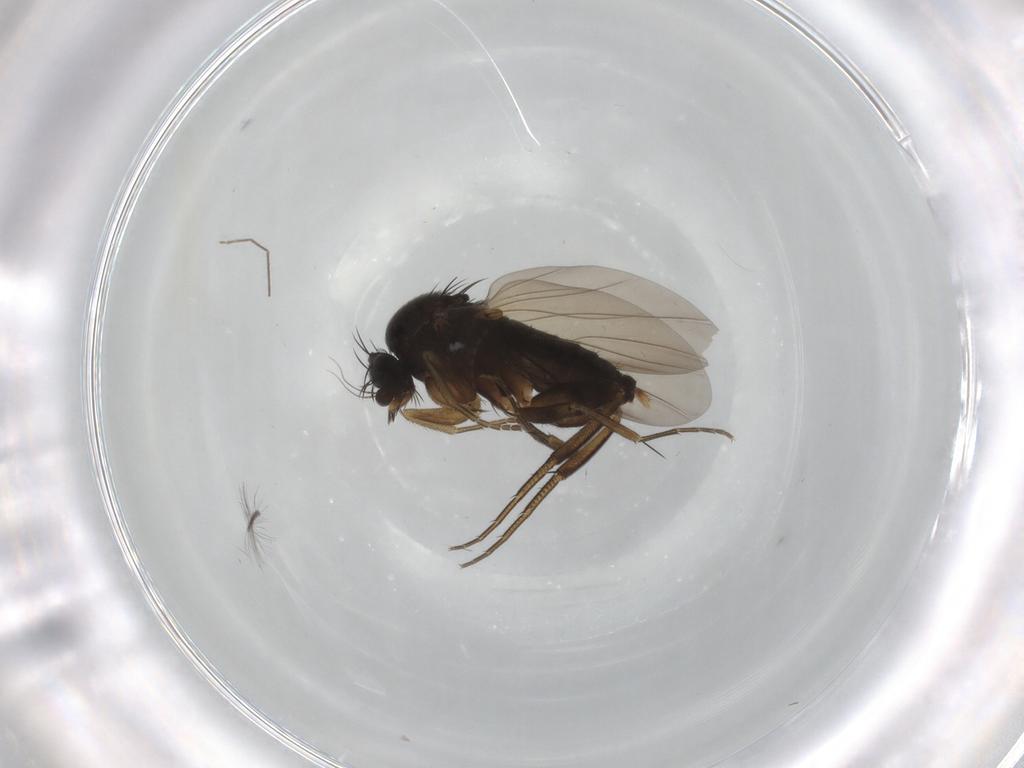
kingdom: Animalia
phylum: Arthropoda
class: Insecta
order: Diptera
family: Phoridae
